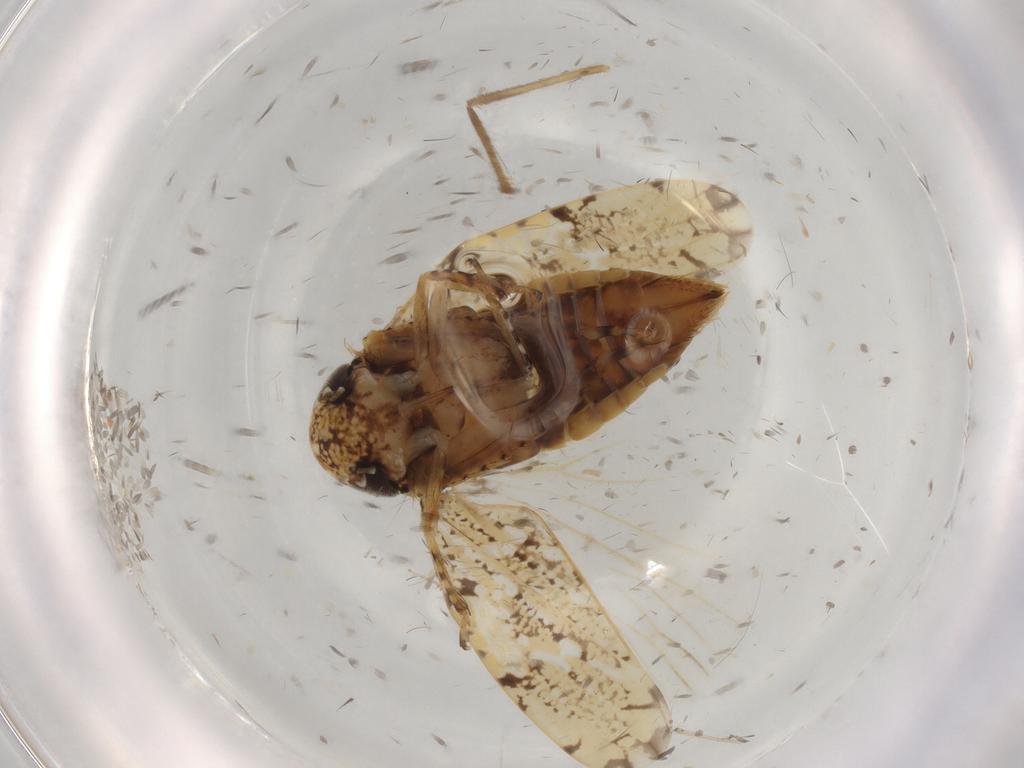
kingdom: Animalia
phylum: Arthropoda
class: Insecta
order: Hemiptera
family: Cicadellidae
